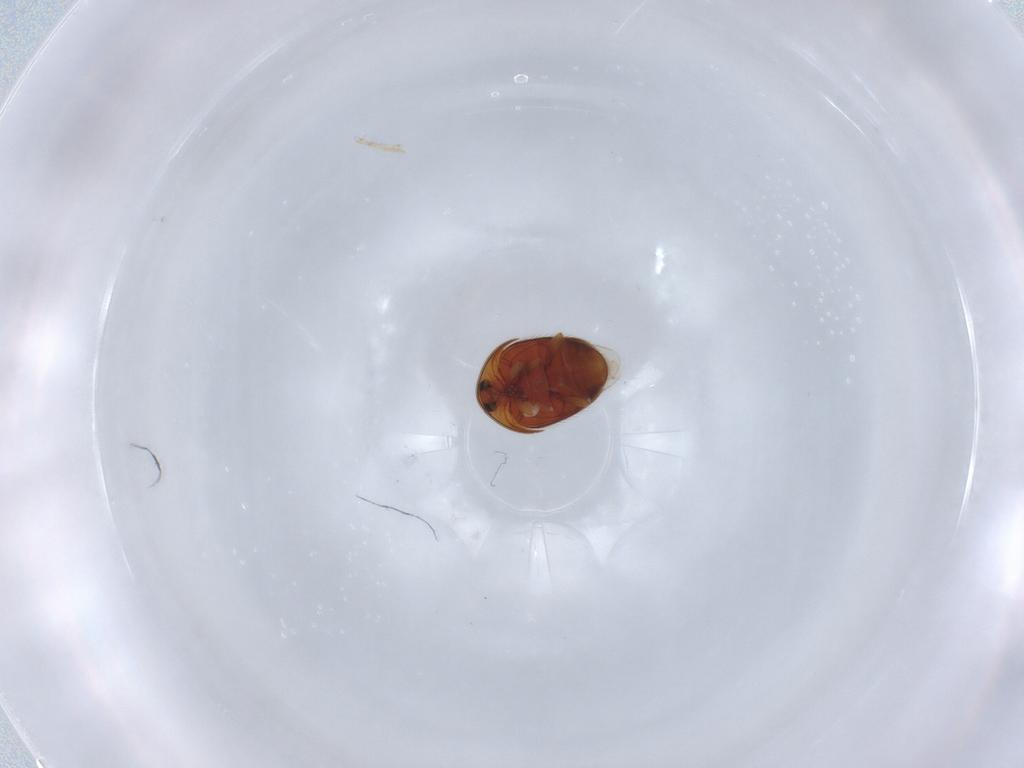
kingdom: Animalia
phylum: Arthropoda
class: Insecta
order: Coleoptera
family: Corylophidae
